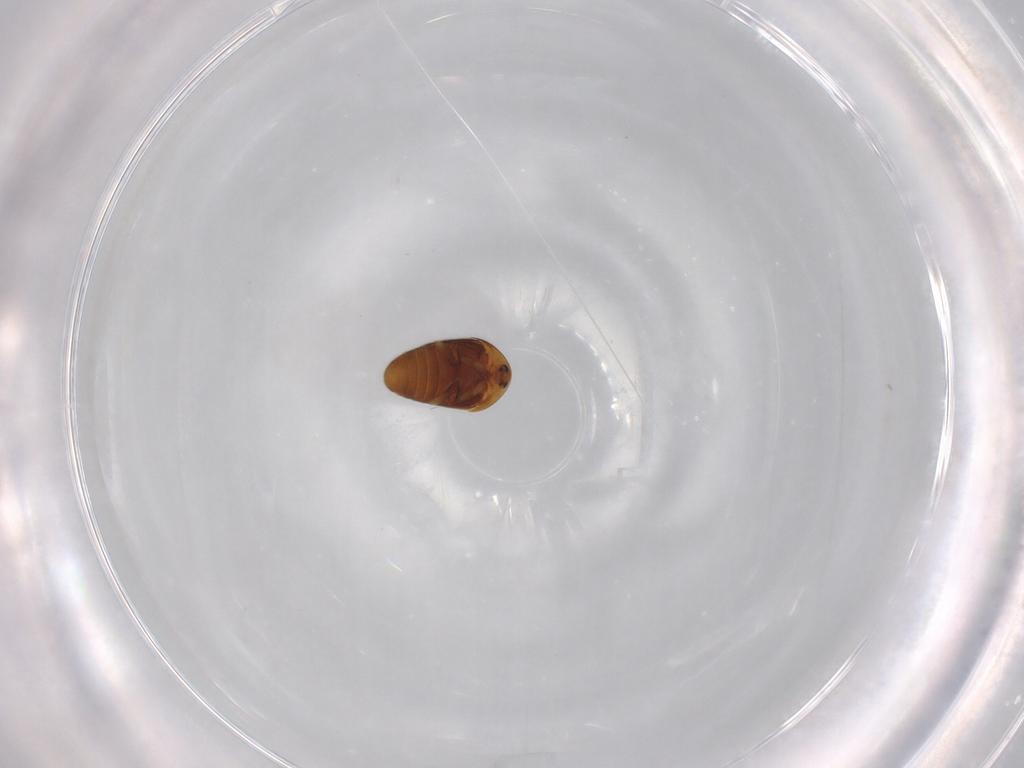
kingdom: Animalia
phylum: Arthropoda
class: Insecta
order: Coleoptera
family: Corylophidae
